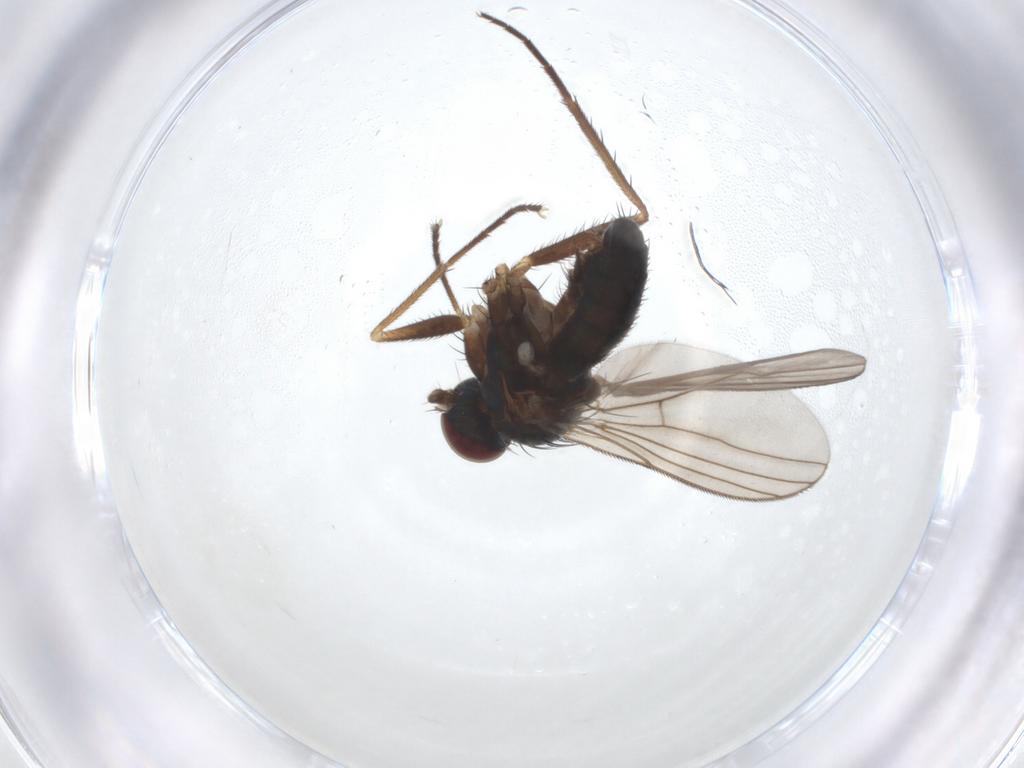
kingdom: Animalia
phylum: Arthropoda
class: Insecta
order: Diptera
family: Dolichopodidae
